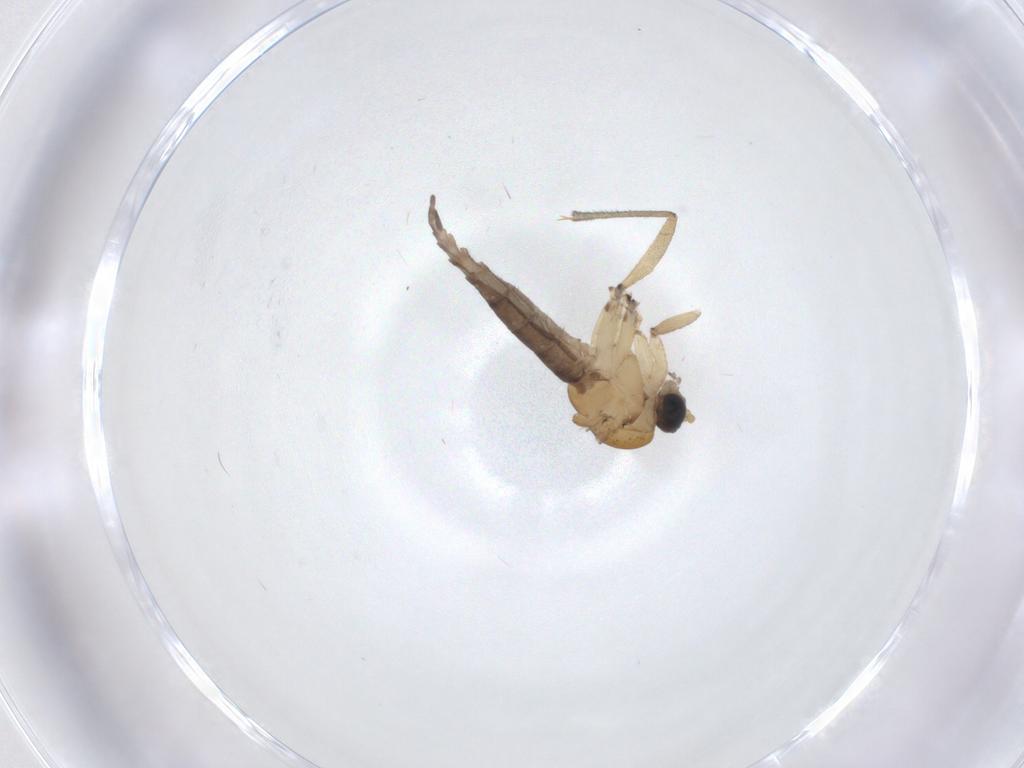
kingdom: Animalia
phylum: Arthropoda
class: Insecta
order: Diptera
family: Sciaridae
